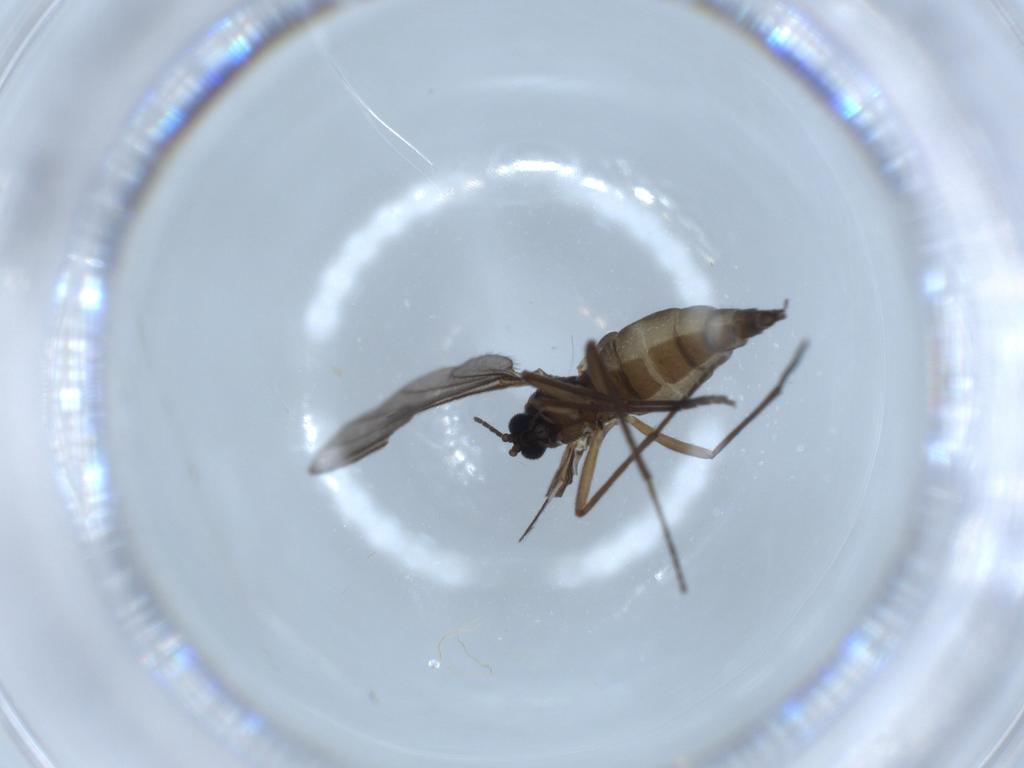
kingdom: Animalia
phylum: Arthropoda
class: Insecta
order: Diptera
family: Sciaridae
